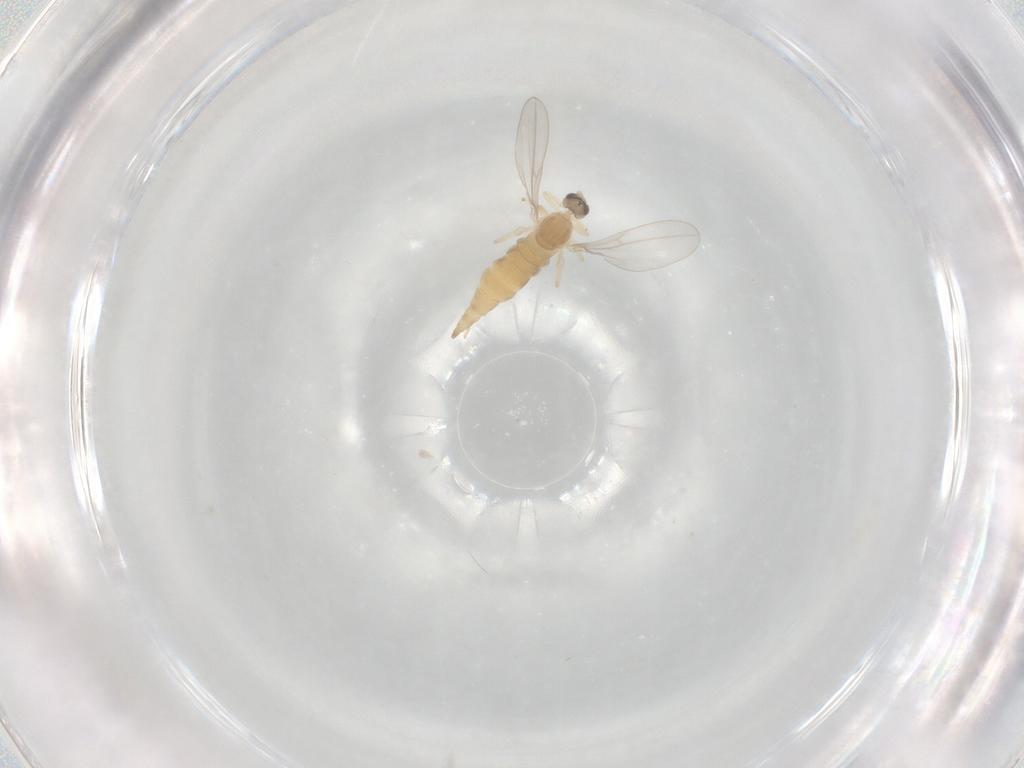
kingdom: Animalia
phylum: Arthropoda
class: Insecta
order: Diptera
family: Cecidomyiidae
